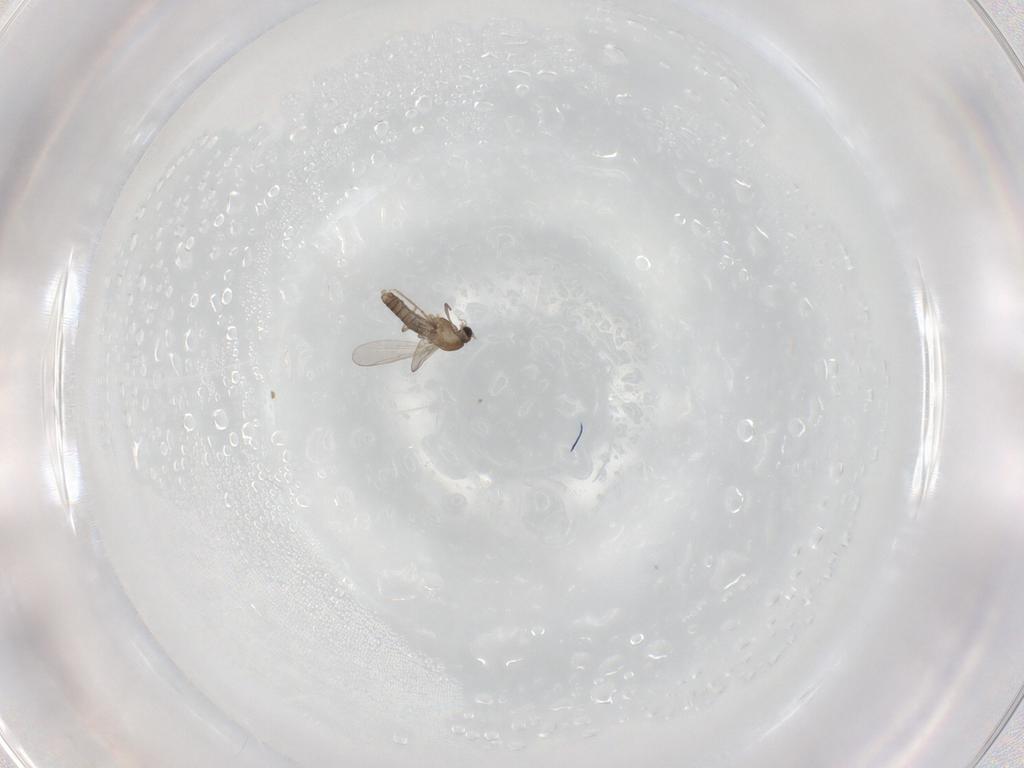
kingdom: Animalia
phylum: Arthropoda
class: Insecta
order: Diptera
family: Chironomidae
